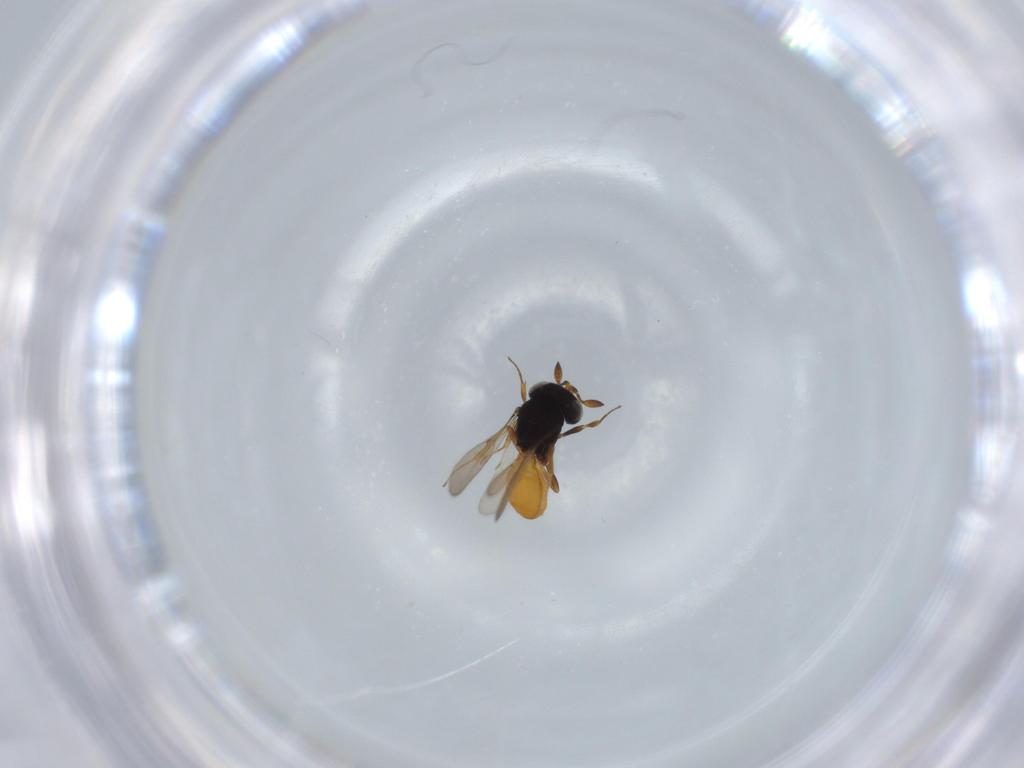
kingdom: Animalia
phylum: Arthropoda
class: Insecta
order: Hymenoptera
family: Scelionidae
